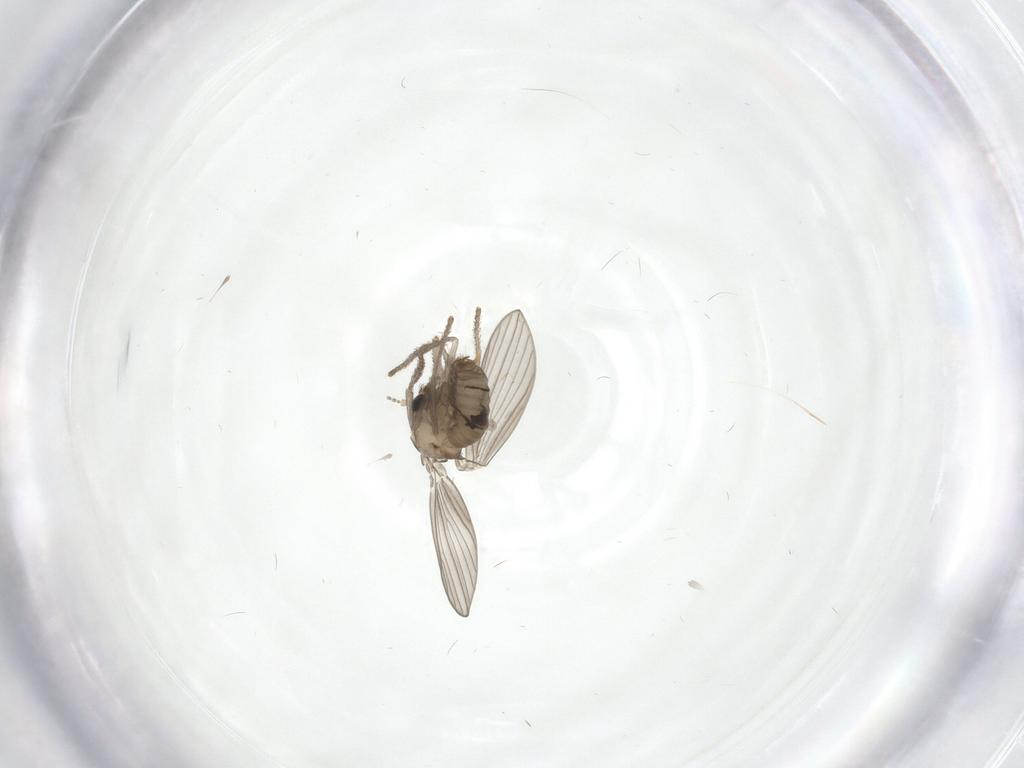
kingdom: Animalia
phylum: Arthropoda
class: Insecta
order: Diptera
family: Psychodidae
